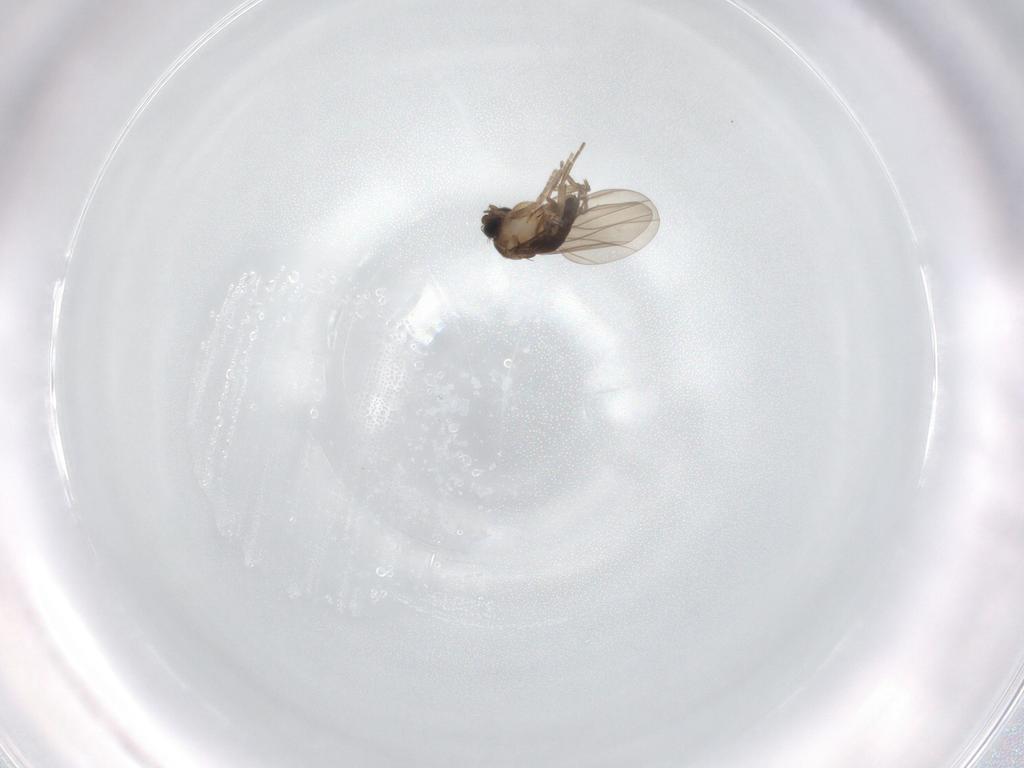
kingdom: Animalia
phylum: Arthropoda
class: Insecta
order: Diptera
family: Phoridae
